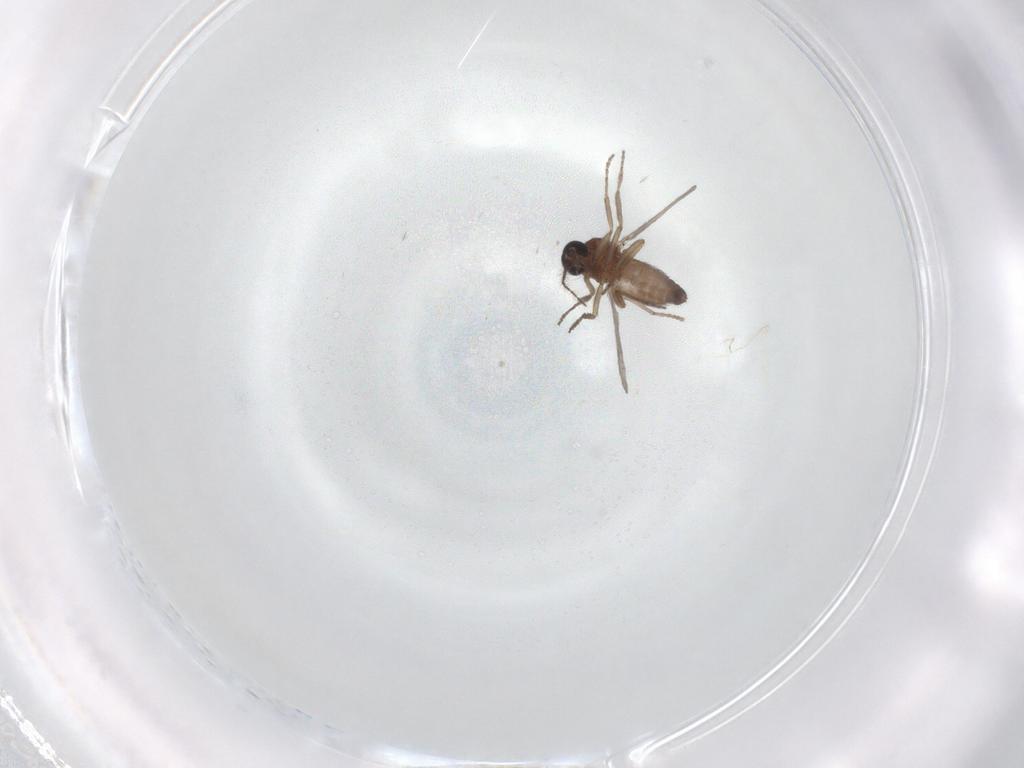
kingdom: Animalia
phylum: Arthropoda
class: Insecta
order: Diptera
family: Ceratopogonidae
